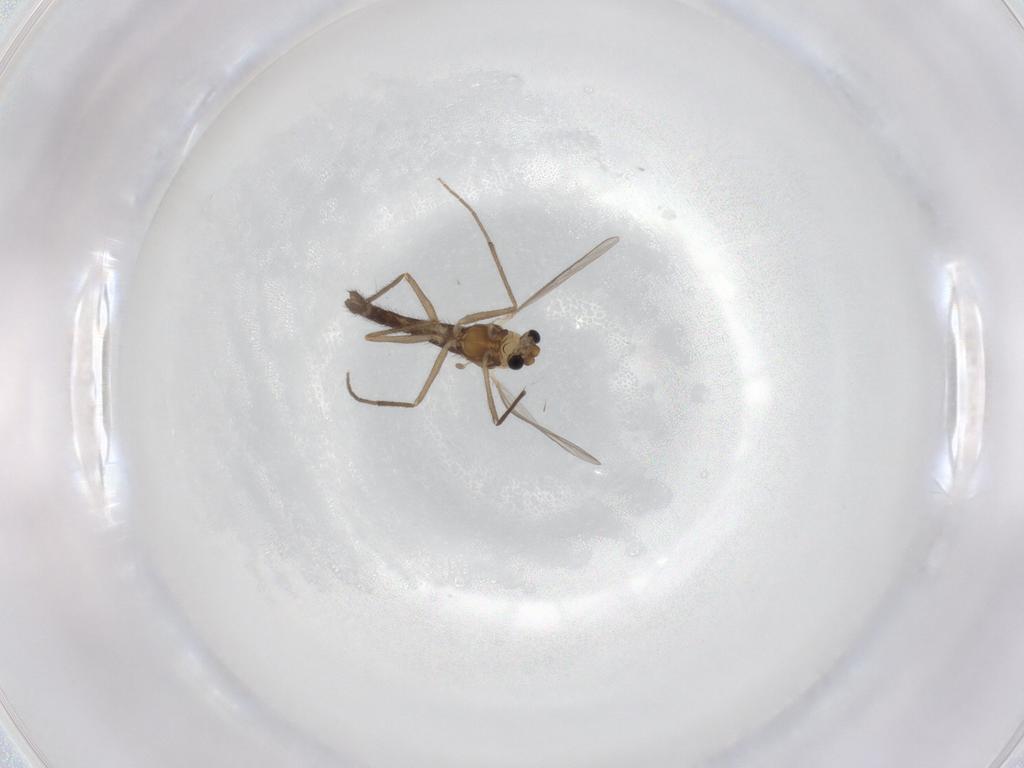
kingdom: Animalia
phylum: Arthropoda
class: Insecta
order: Diptera
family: Chironomidae
